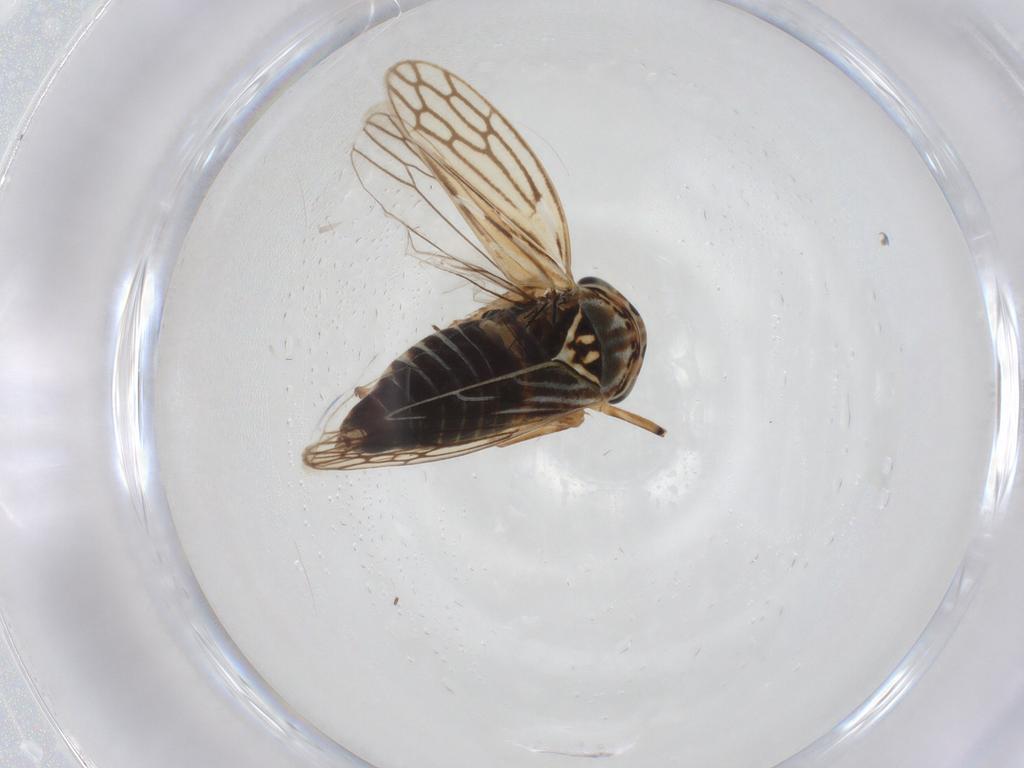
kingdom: Animalia
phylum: Arthropoda
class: Insecta
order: Hemiptera
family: Cicadellidae
